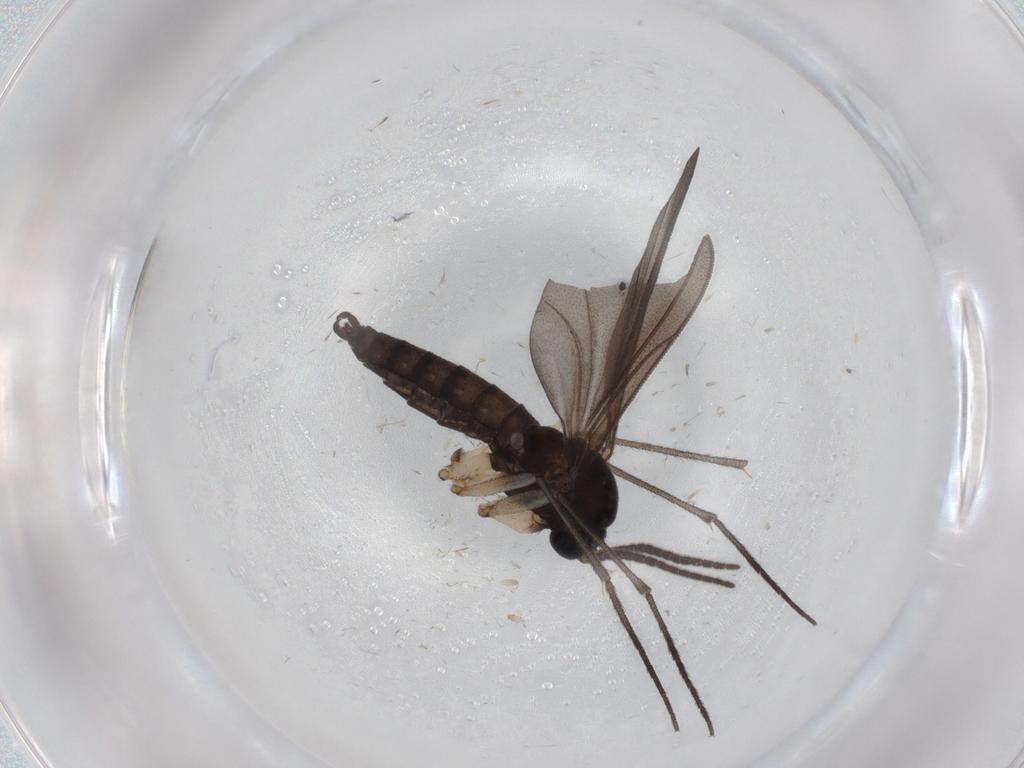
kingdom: Animalia
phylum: Arthropoda
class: Insecta
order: Diptera
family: Sciaridae
